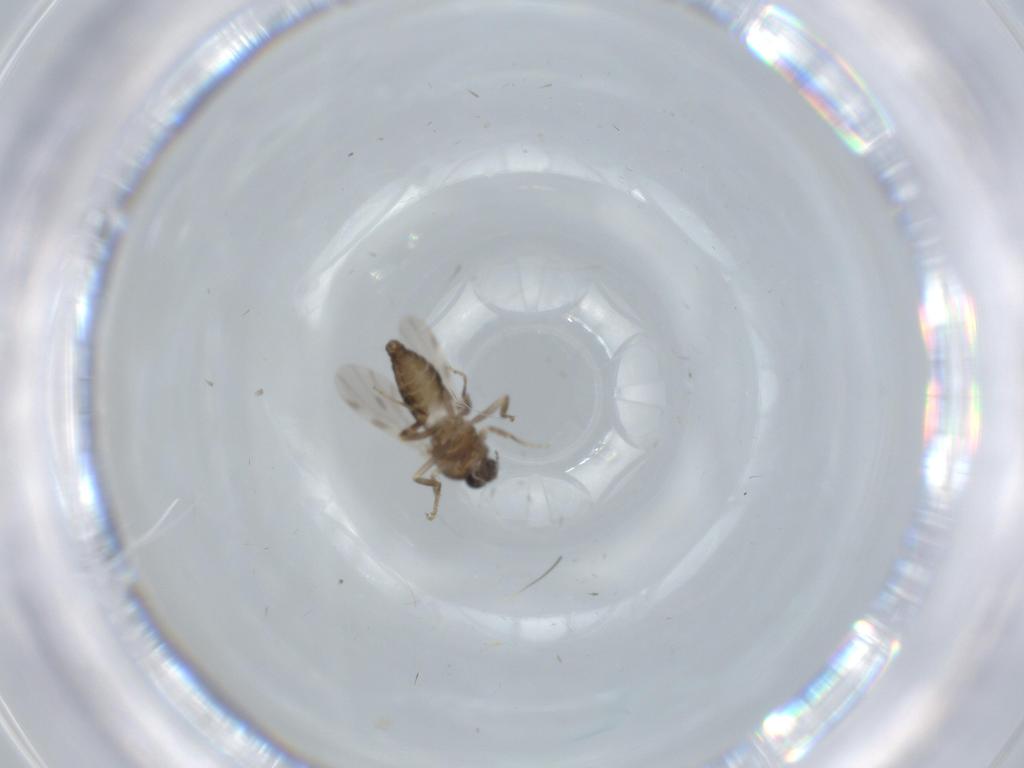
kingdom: Animalia
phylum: Arthropoda
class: Insecta
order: Diptera
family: Ceratopogonidae
